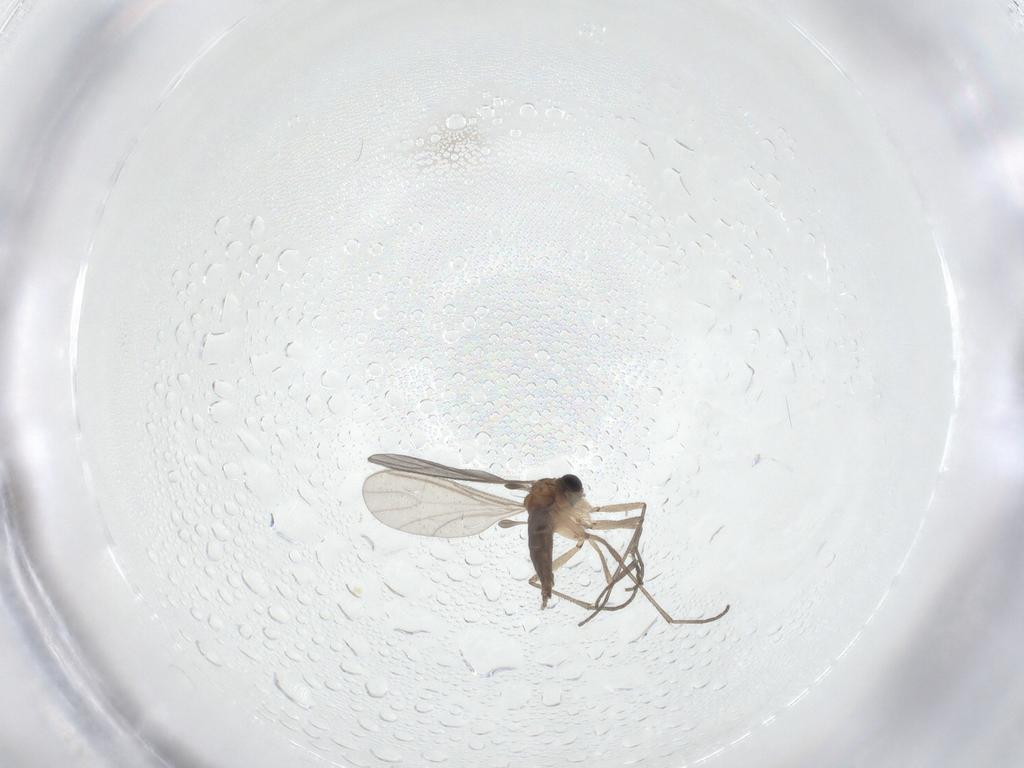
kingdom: Animalia
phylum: Arthropoda
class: Insecta
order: Diptera
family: Sciaridae
